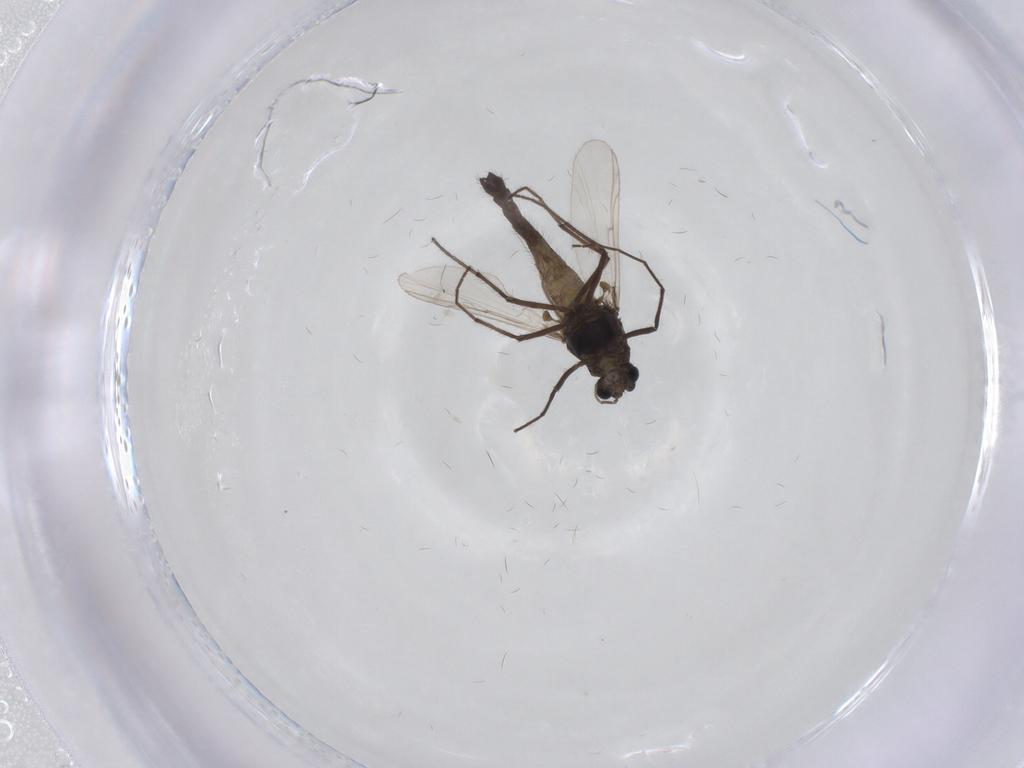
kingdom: Animalia
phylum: Arthropoda
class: Insecta
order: Diptera
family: Chironomidae
